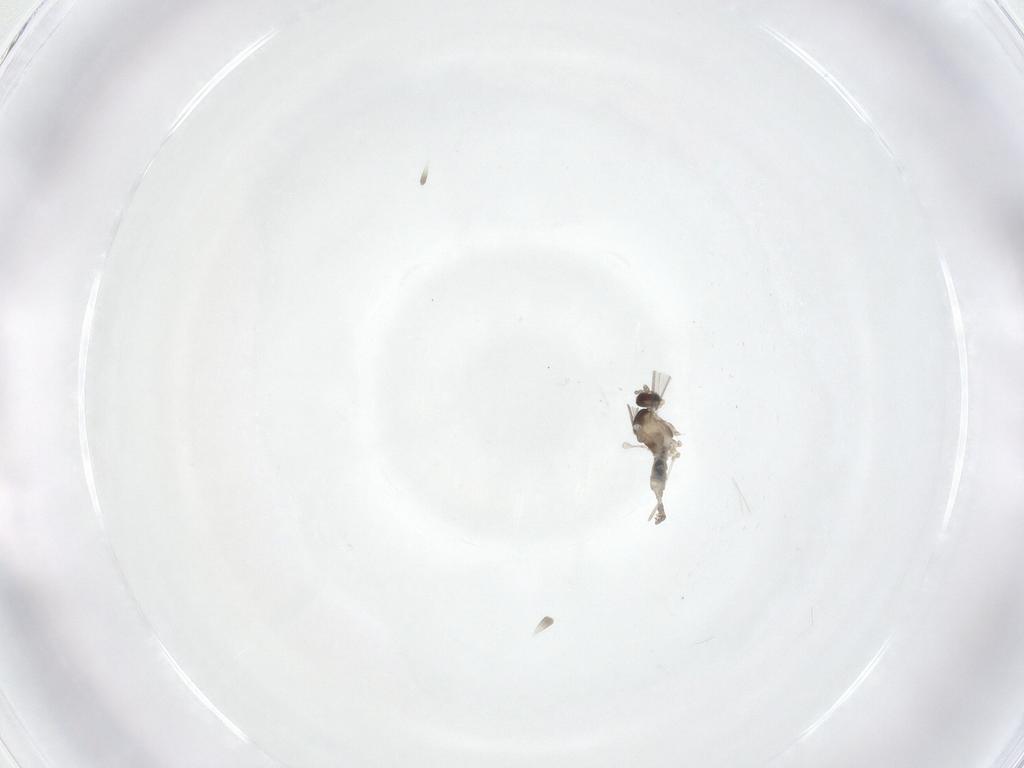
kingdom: Animalia
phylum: Arthropoda
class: Insecta
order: Diptera
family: Cecidomyiidae
